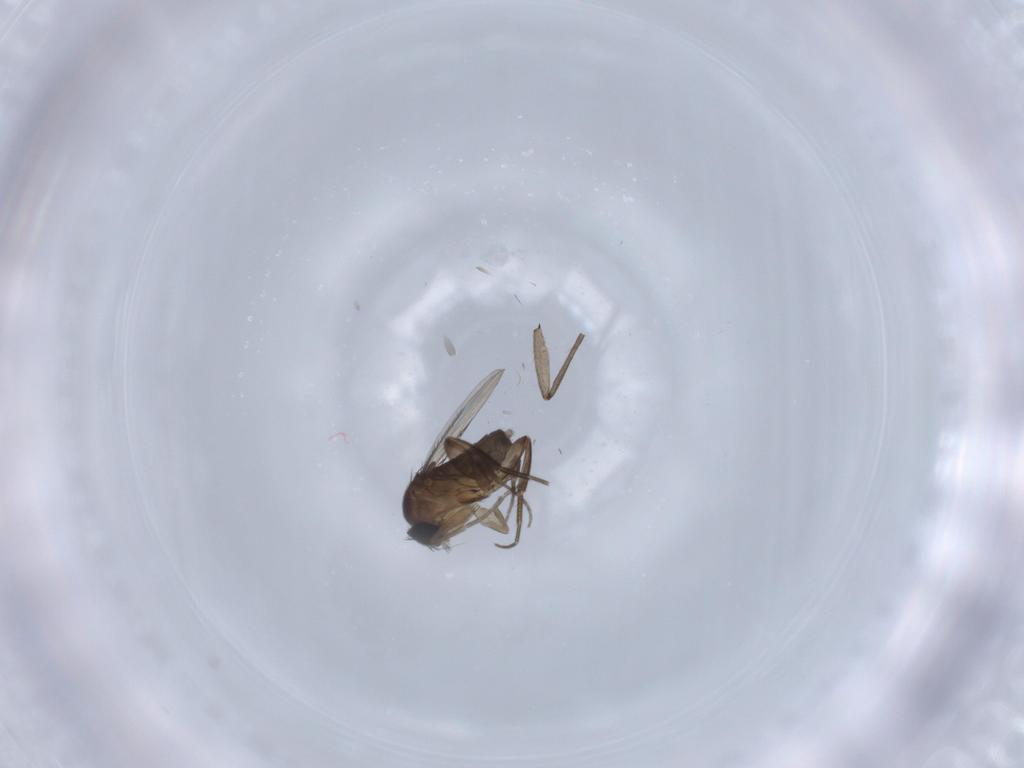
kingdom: Animalia
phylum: Arthropoda
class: Insecta
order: Diptera
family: Phoridae
